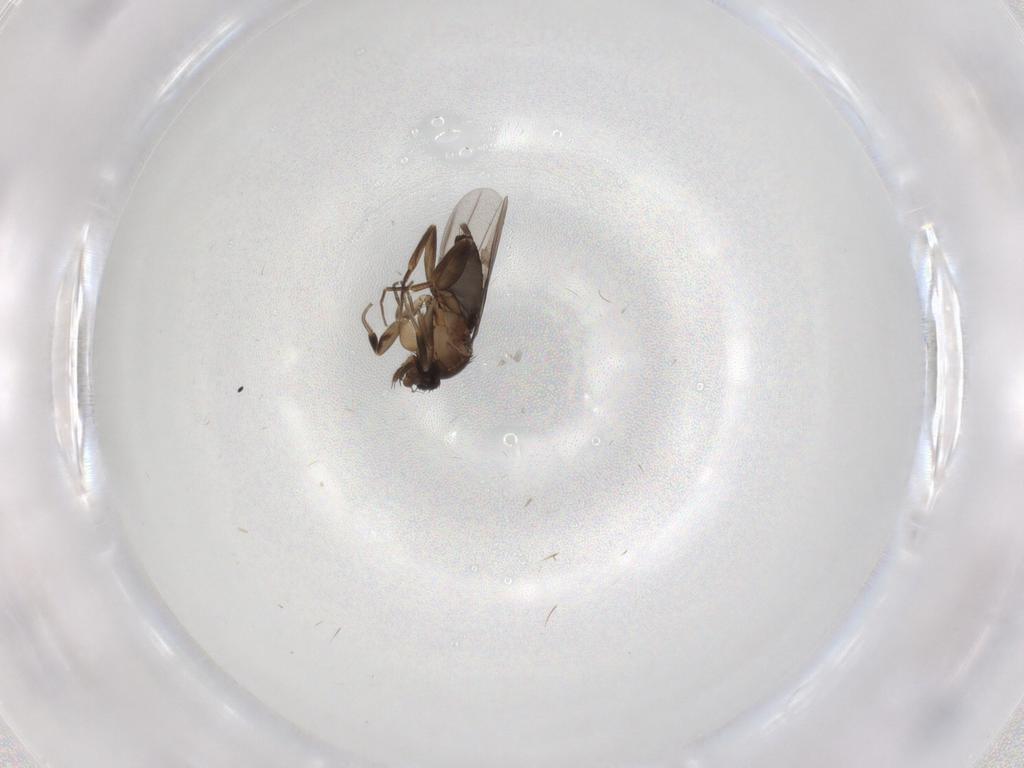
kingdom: Animalia
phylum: Arthropoda
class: Insecta
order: Diptera
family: Phoridae
